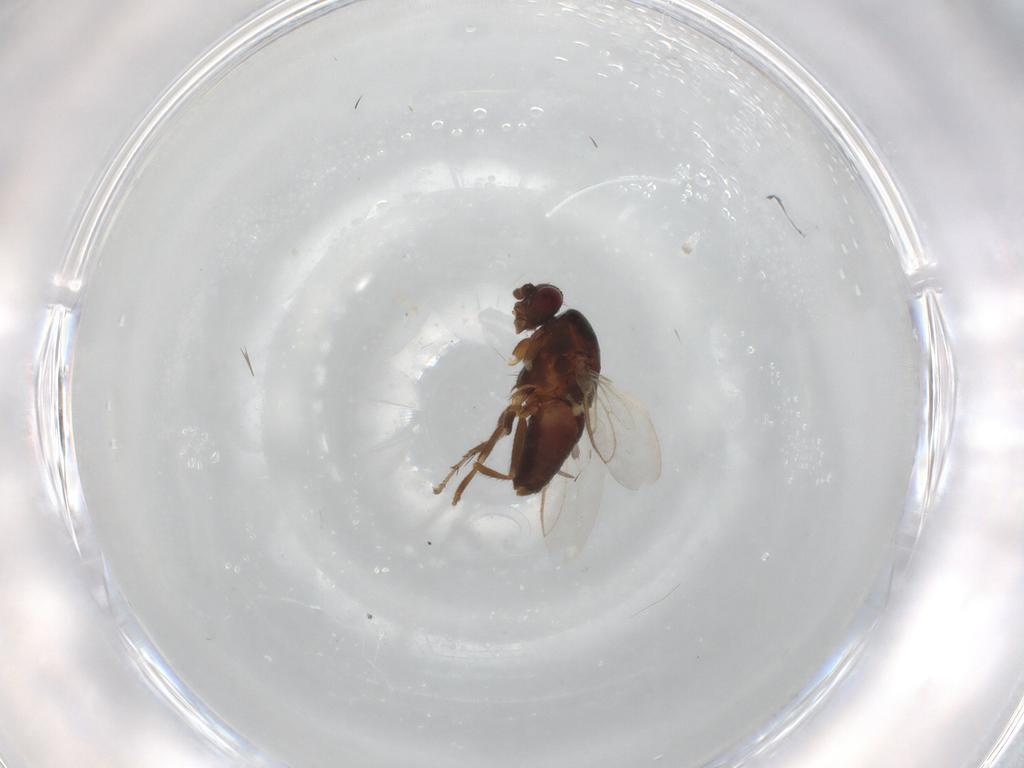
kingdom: Animalia
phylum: Arthropoda
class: Insecta
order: Diptera
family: Sphaeroceridae
